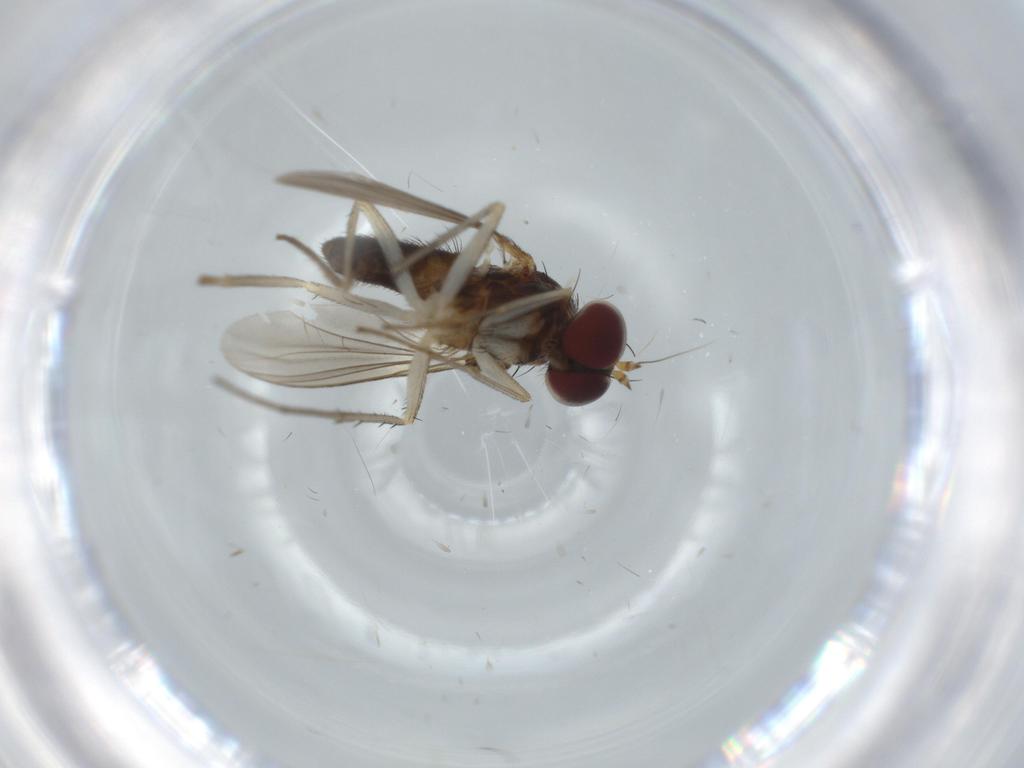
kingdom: Animalia
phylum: Arthropoda
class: Insecta
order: Diptera
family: Dolichopodidae
